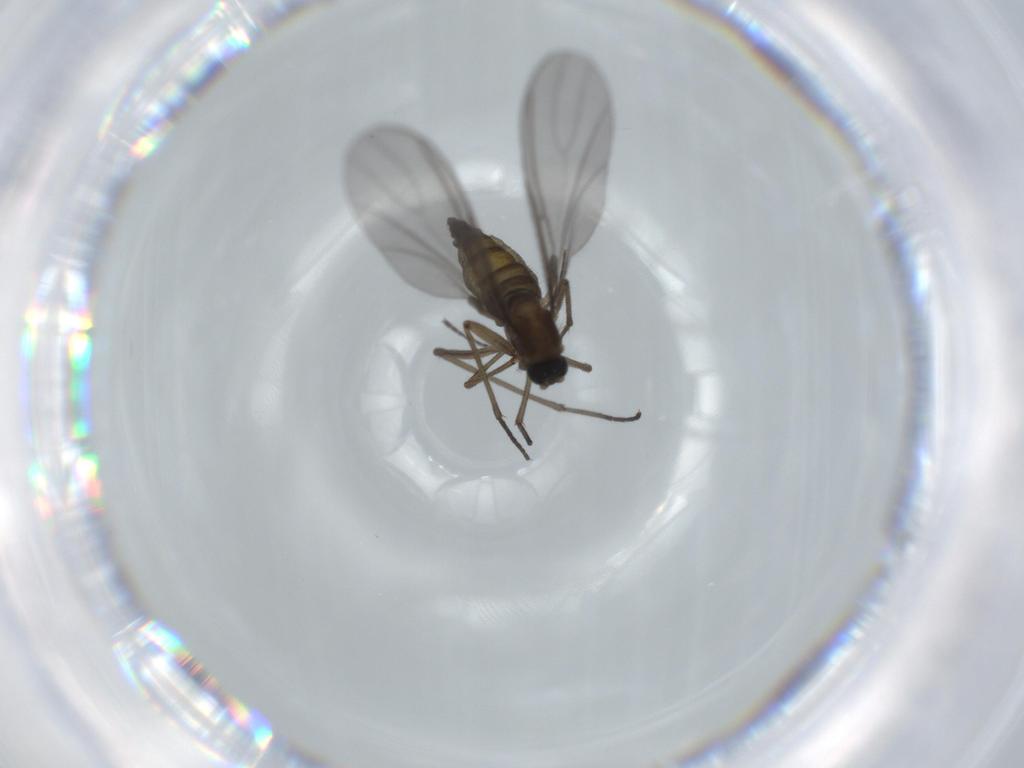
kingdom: Animalia
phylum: Arthropoda
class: Insecta
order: Diptera
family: Sciaridae
